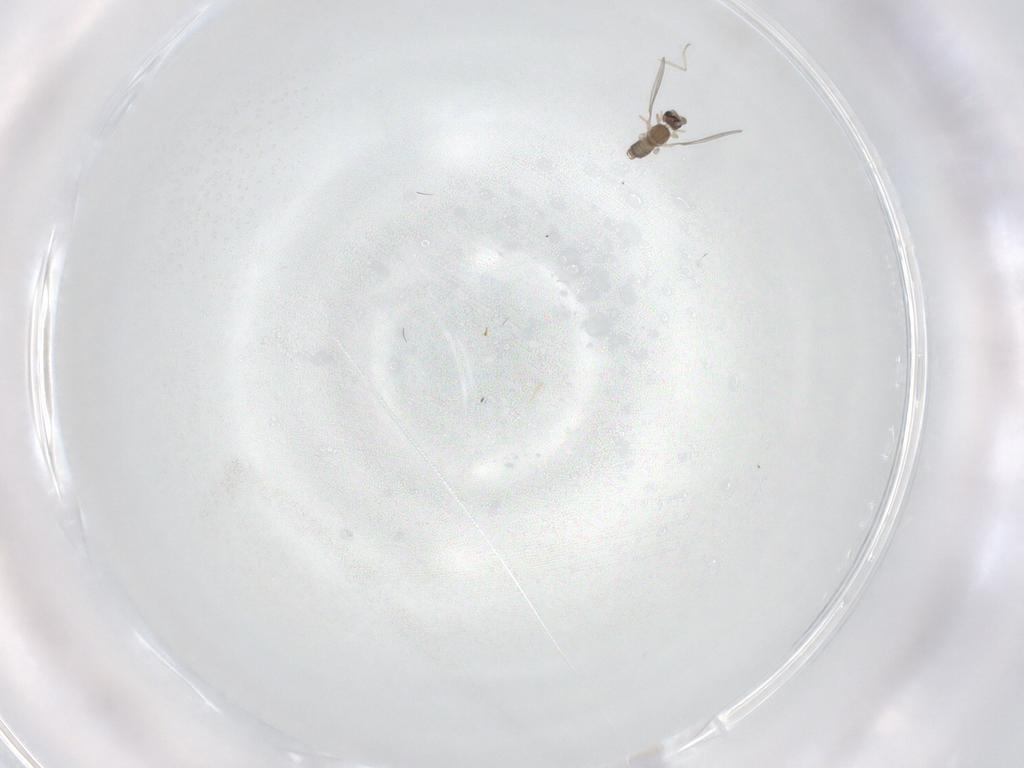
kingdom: Animalia
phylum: Arthropoda
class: Insecta
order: Diptera
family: Cecidomyiidae
